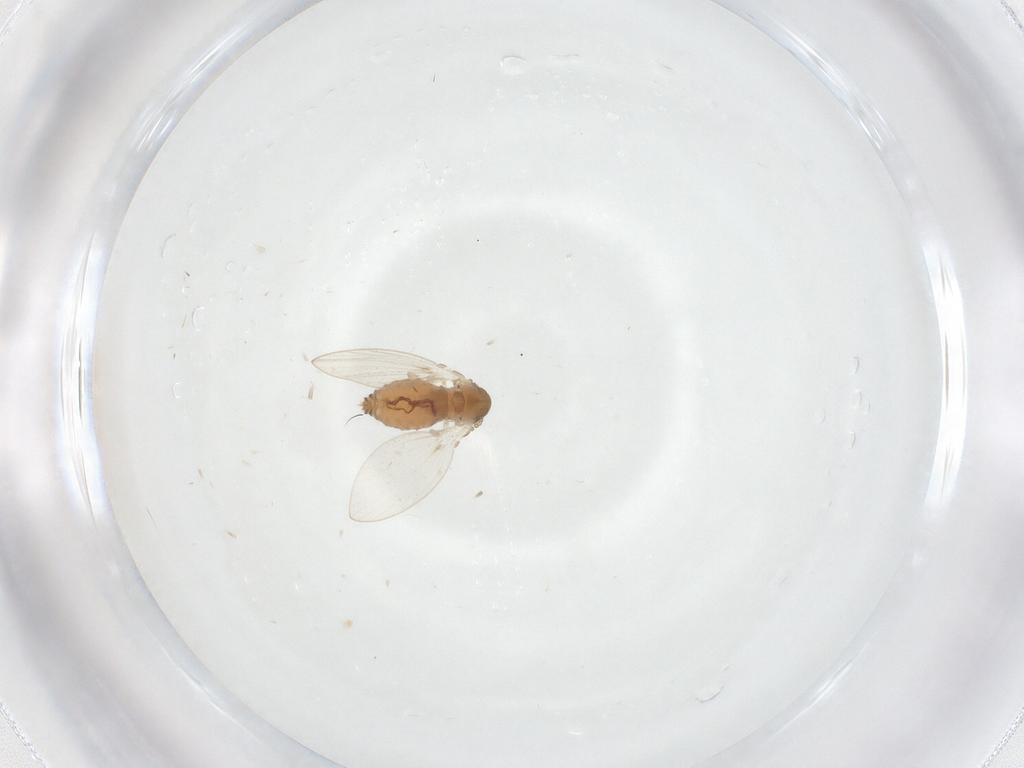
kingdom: Animalia
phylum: Arthropoda
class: Insecta
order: Diptera
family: Psychodidae
